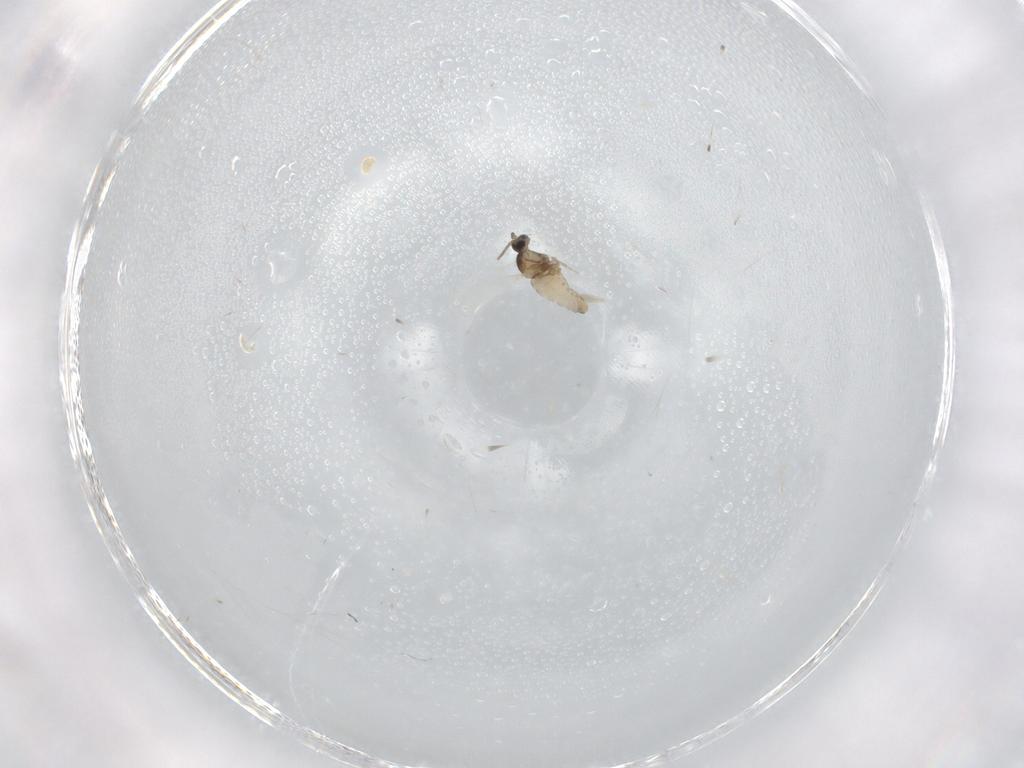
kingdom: Animalia
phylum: Arthropoda
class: Insecta
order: Diptera
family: Cecidomyiidae
